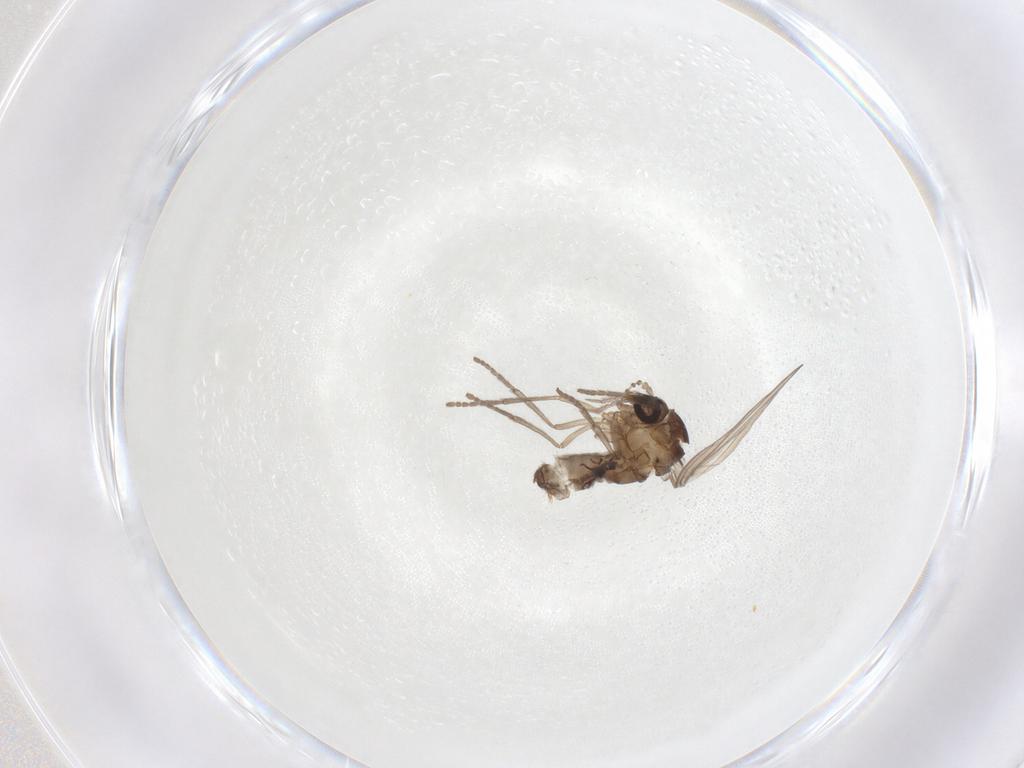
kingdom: Animalia
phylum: Arthropoda
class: Insecta
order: Diptera
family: Psychodidae
